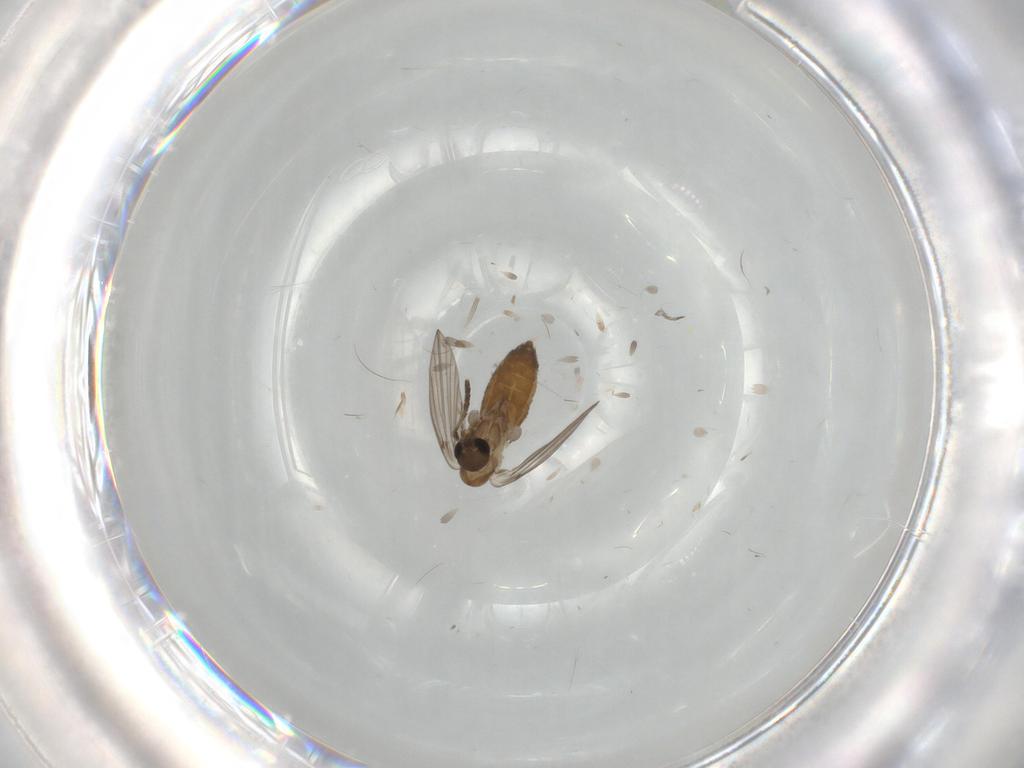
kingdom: Animalia
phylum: Arthropoda
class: Insecta
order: Diptera
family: Psychodidae
